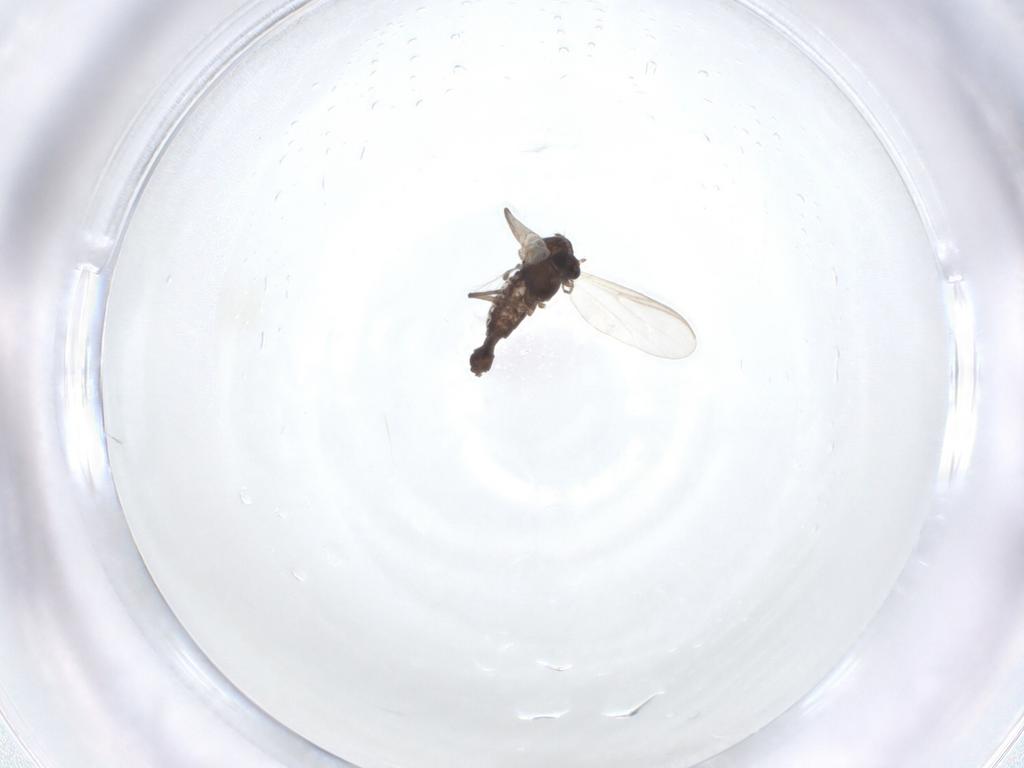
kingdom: Animalia
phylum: Arthropoda
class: Insecta
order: Diptera
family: Chironomidae
